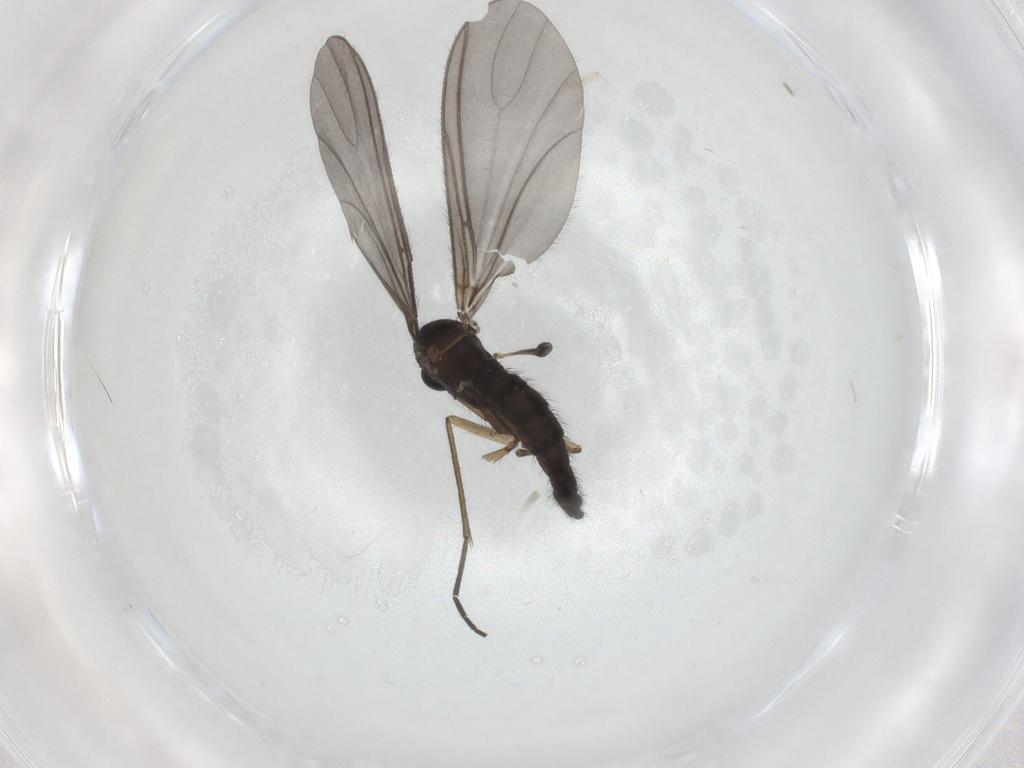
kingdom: Animalia
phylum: Arthropoda
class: Insecta
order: Diptera
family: Sciaridae
